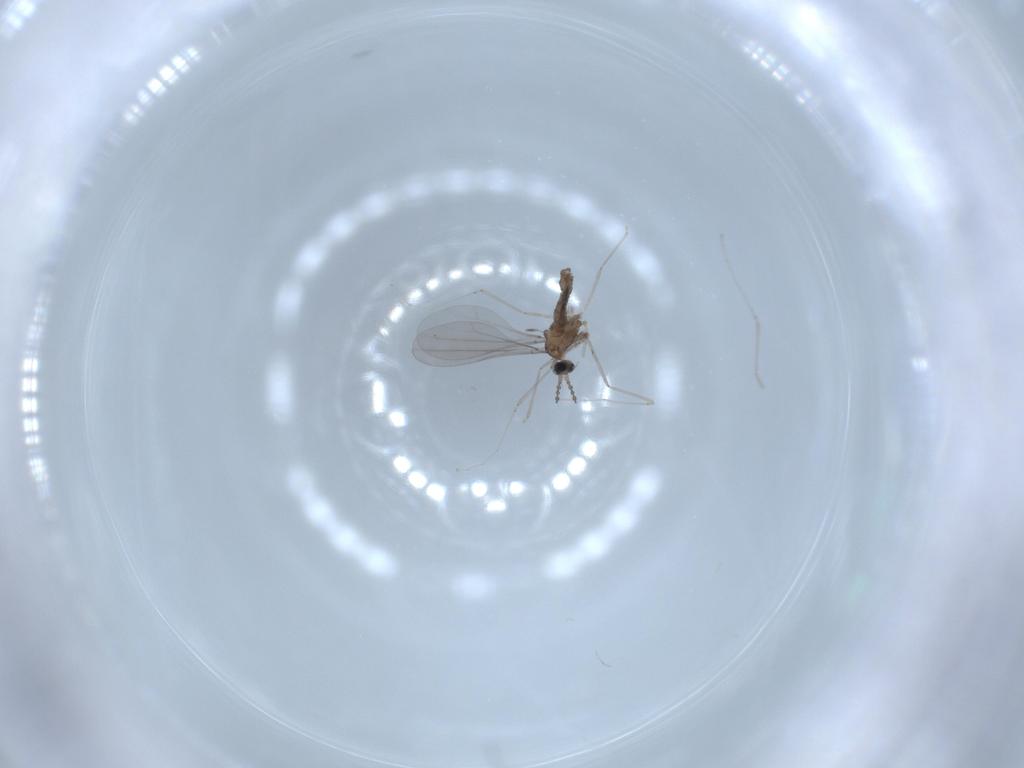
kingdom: Animalia
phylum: Arthropoda
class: Insecta
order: Diptera
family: Cecidomyiidae
